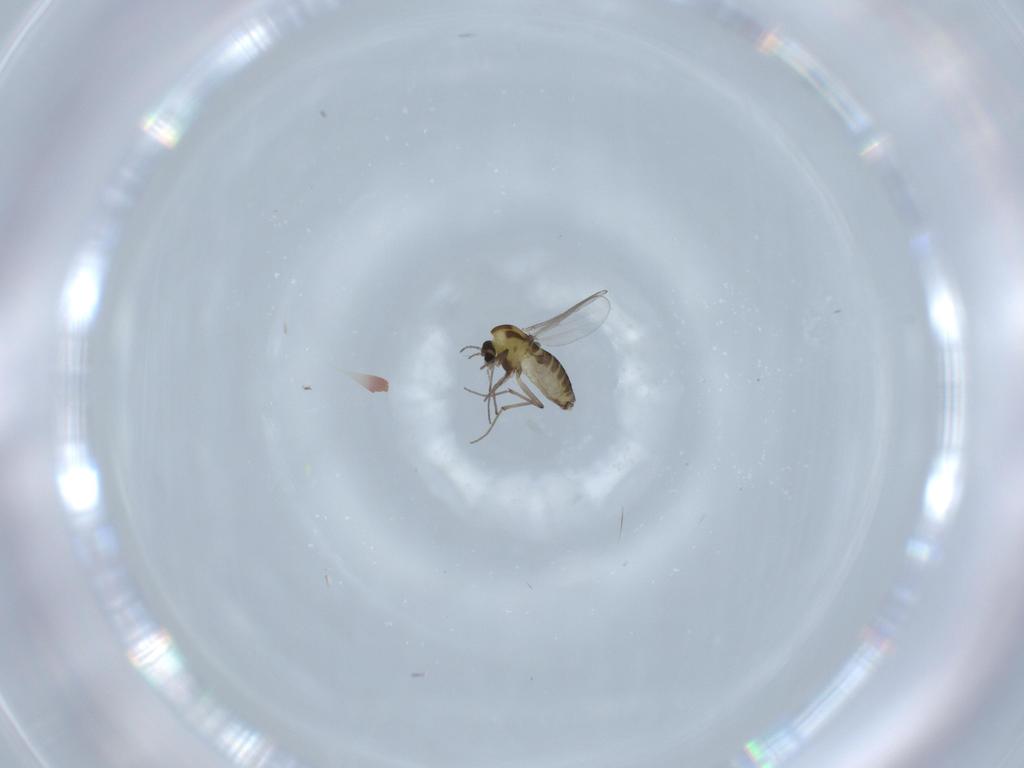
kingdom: Animalia
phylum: Arthropoda
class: Insecta
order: Diptera
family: Chironomidae
